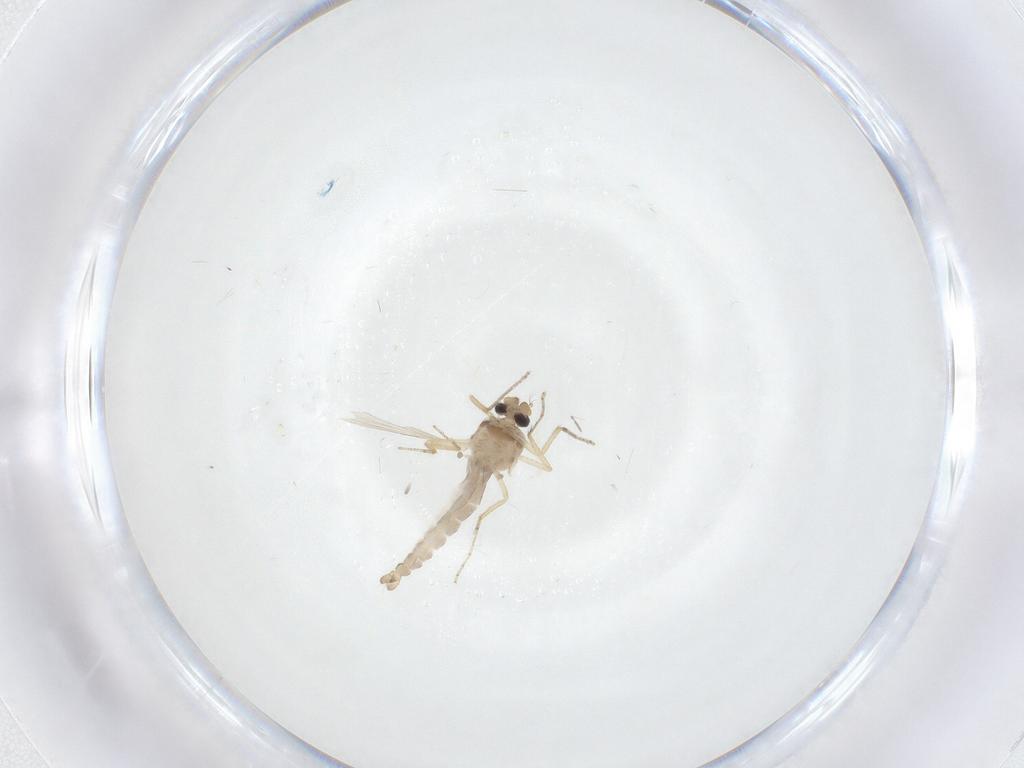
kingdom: Animalia
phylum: Arthropoda
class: Insecta
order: Diptera
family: Ceratopogonidae
